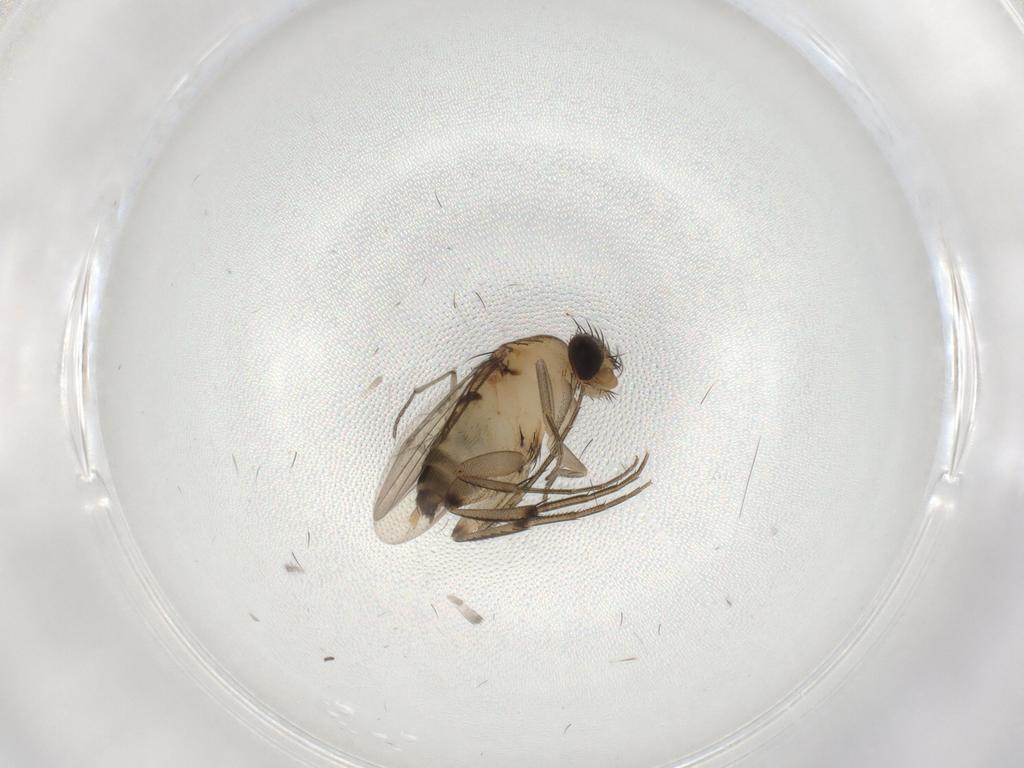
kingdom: Animalia
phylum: Arthropoda
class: Insecta
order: Diptera
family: Phoridae
